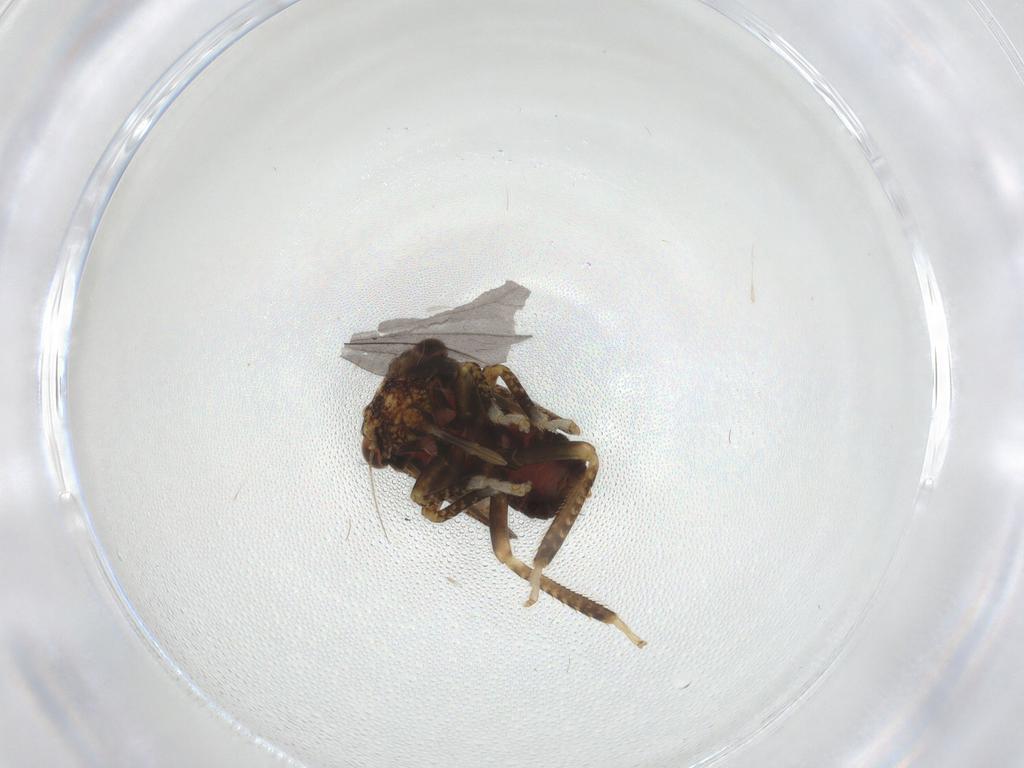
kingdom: Animalia
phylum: Arthropoda
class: Insecta
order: Hemiptera
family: Miridae
